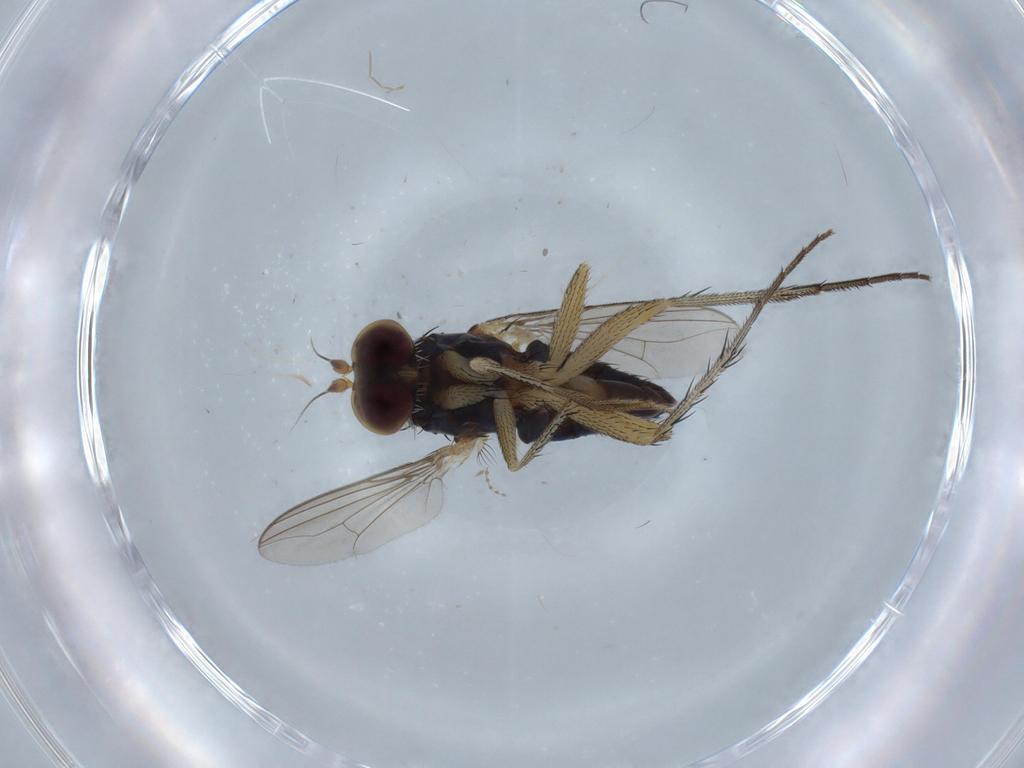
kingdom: Animalia
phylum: Arthropoda
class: Insecta
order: Diptera
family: Dolichopodidae
